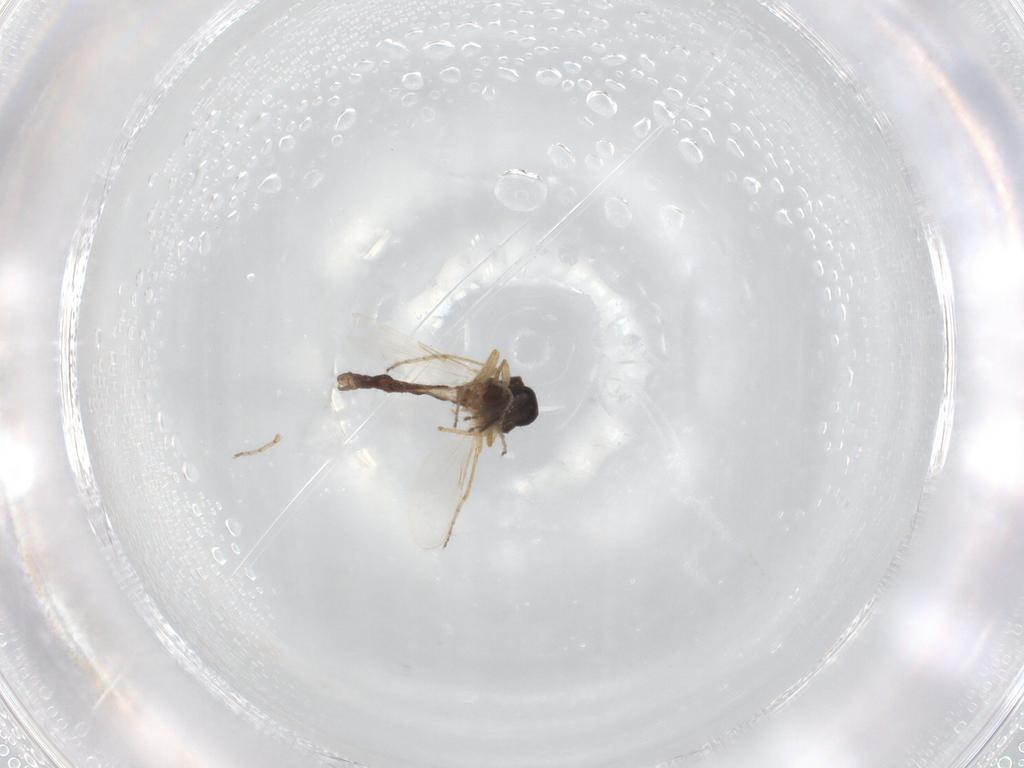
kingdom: Animalia
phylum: Arthropoda
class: Insecta
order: Diptera
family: Ceratopogonidae
